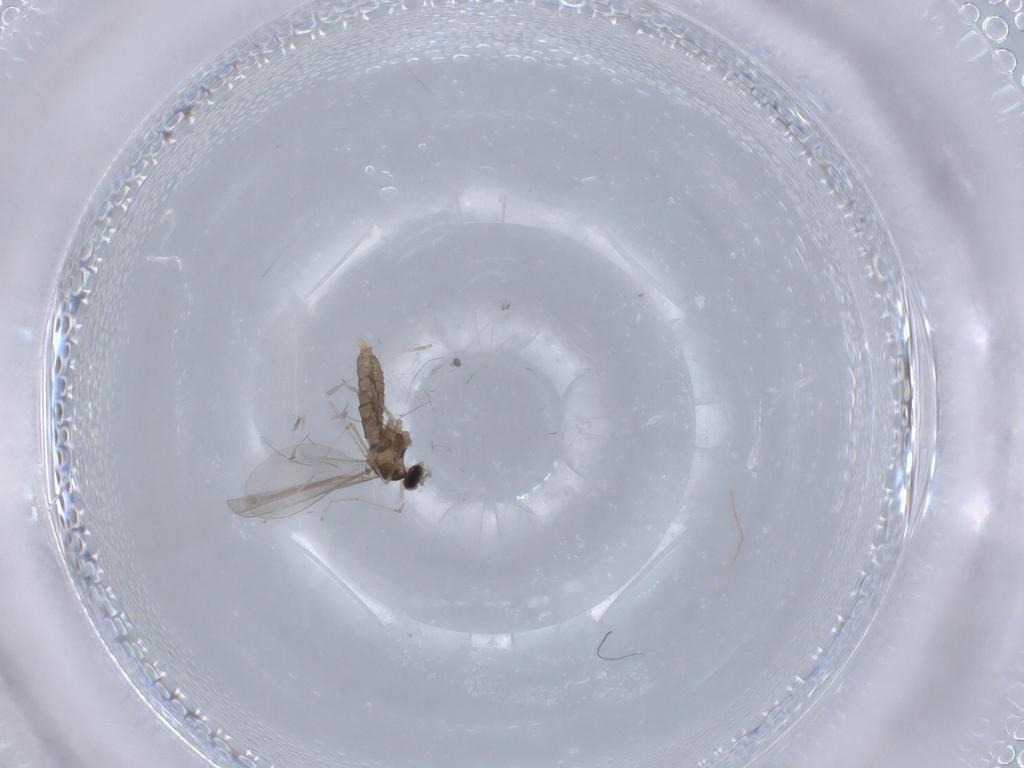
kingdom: Animalia
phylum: Arthropoda
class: Insecta
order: Diptera
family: Cecidomyiidae
